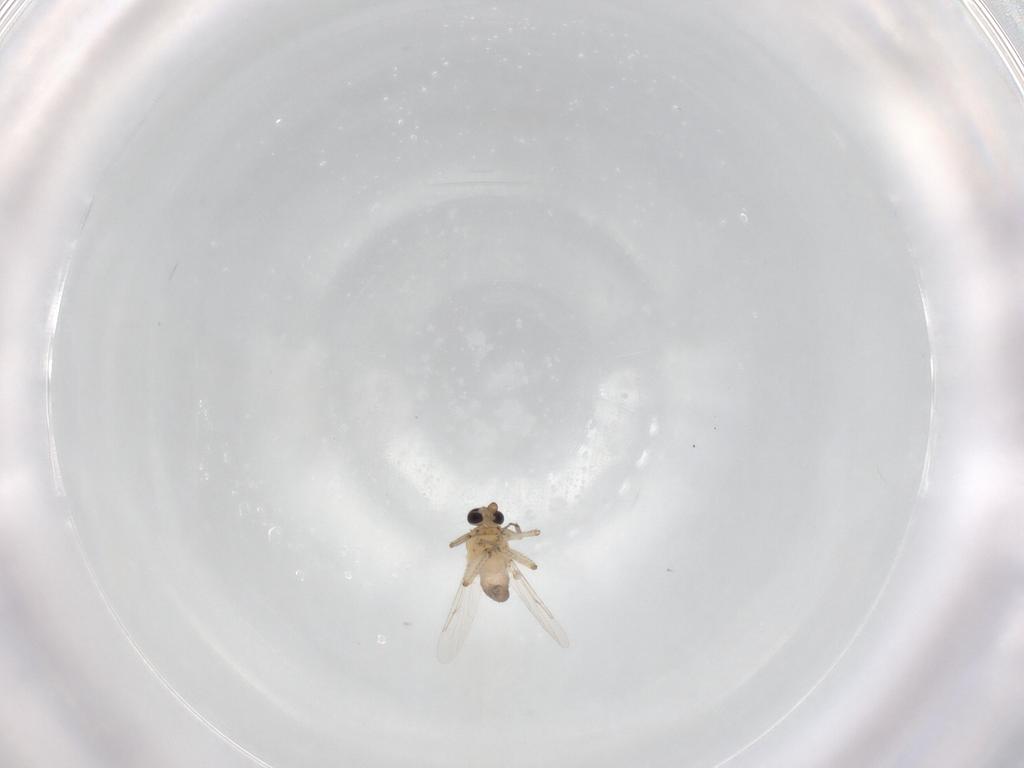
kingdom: Animalia
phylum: Arthropoda
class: Insecta
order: Diptera
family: Ceratopogonidae
